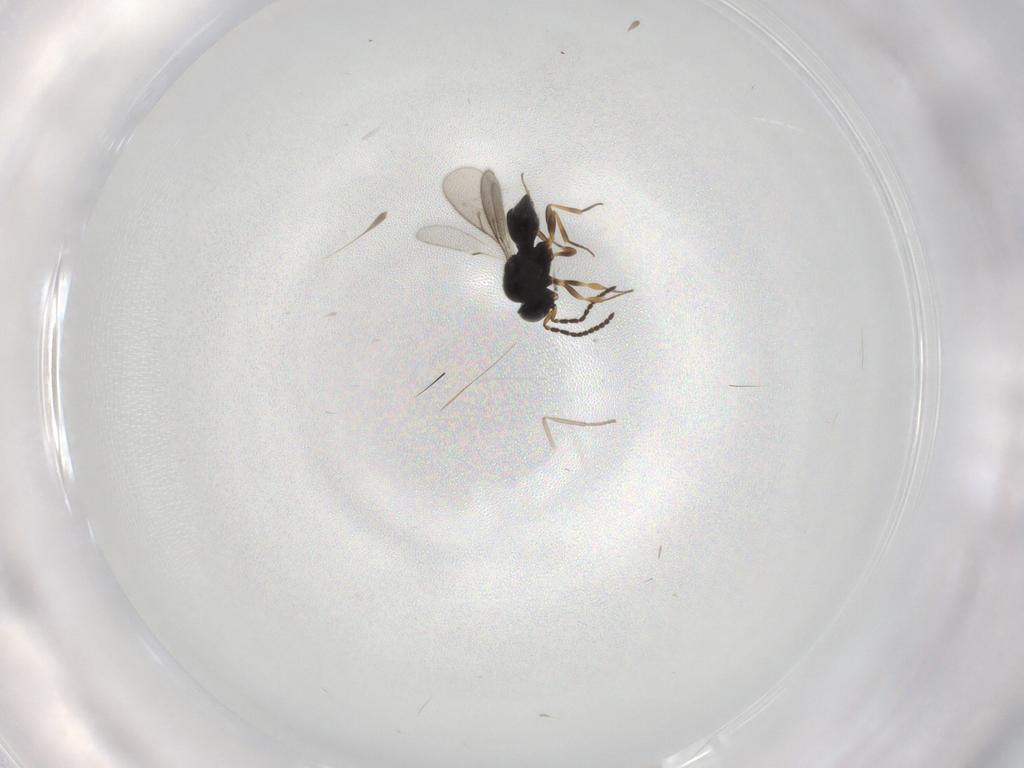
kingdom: Animalia
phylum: Arthropoda
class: Insecta
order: Hymenoptera
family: Scelionidae
